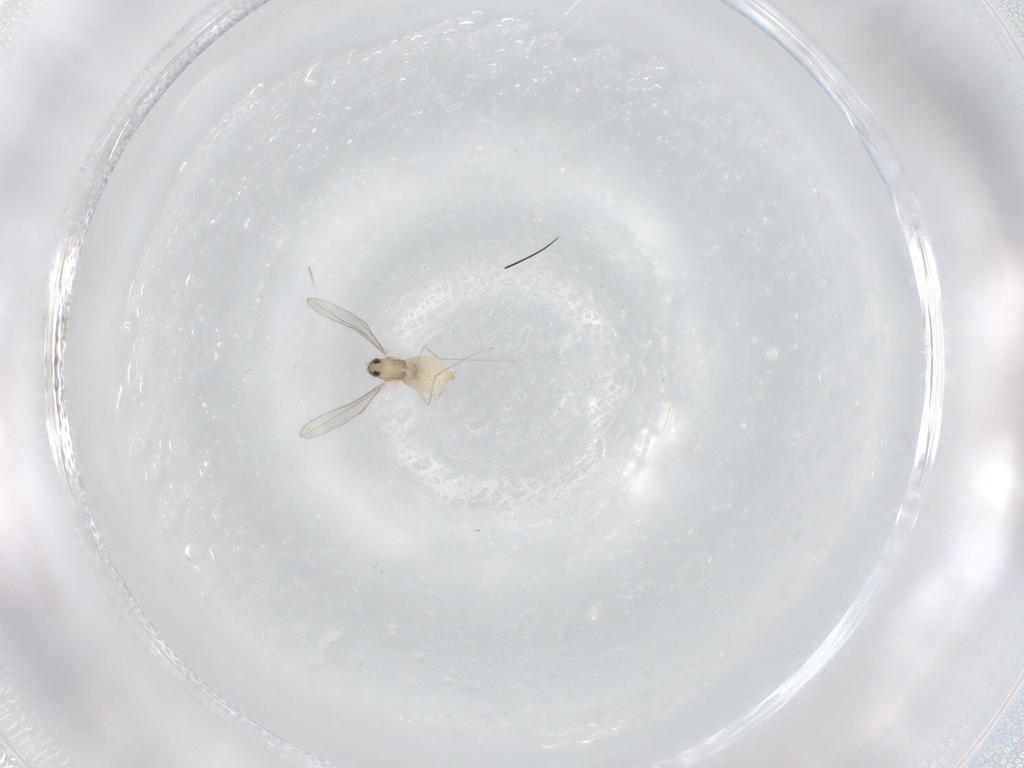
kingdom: Animalia
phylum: Arthropoda
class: Insecta
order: Diptera
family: Cecidomyiidae
